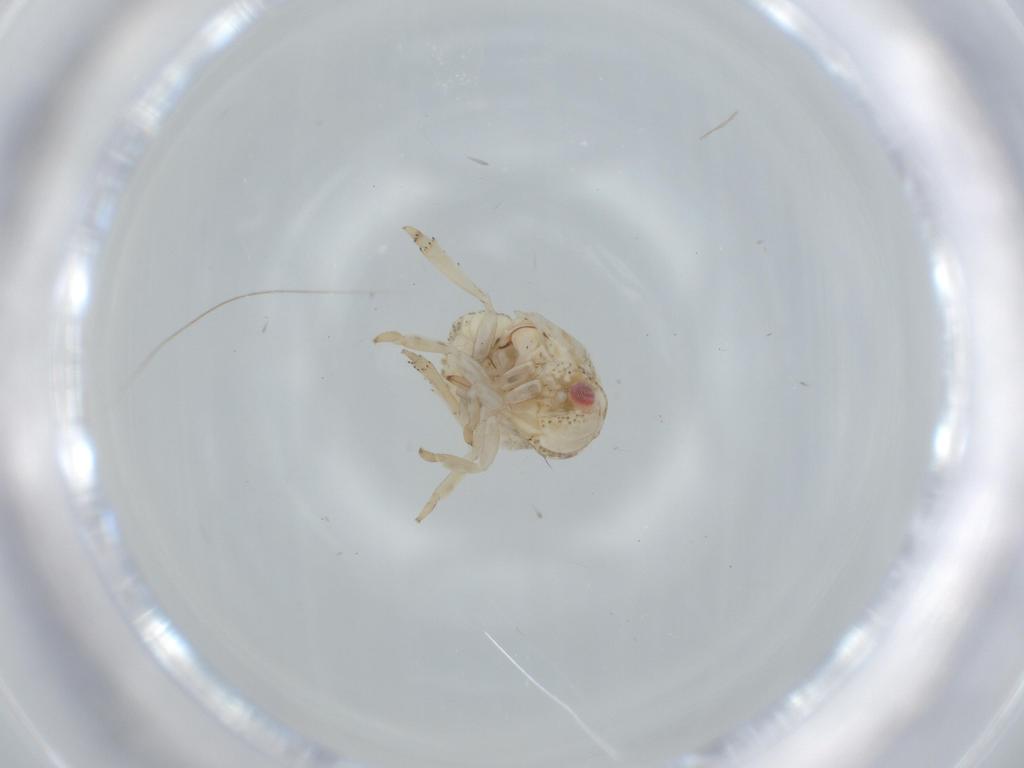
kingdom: Animalia
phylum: Arthropoda
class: Insecta
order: Hemiptera
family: Acanaloniidae
